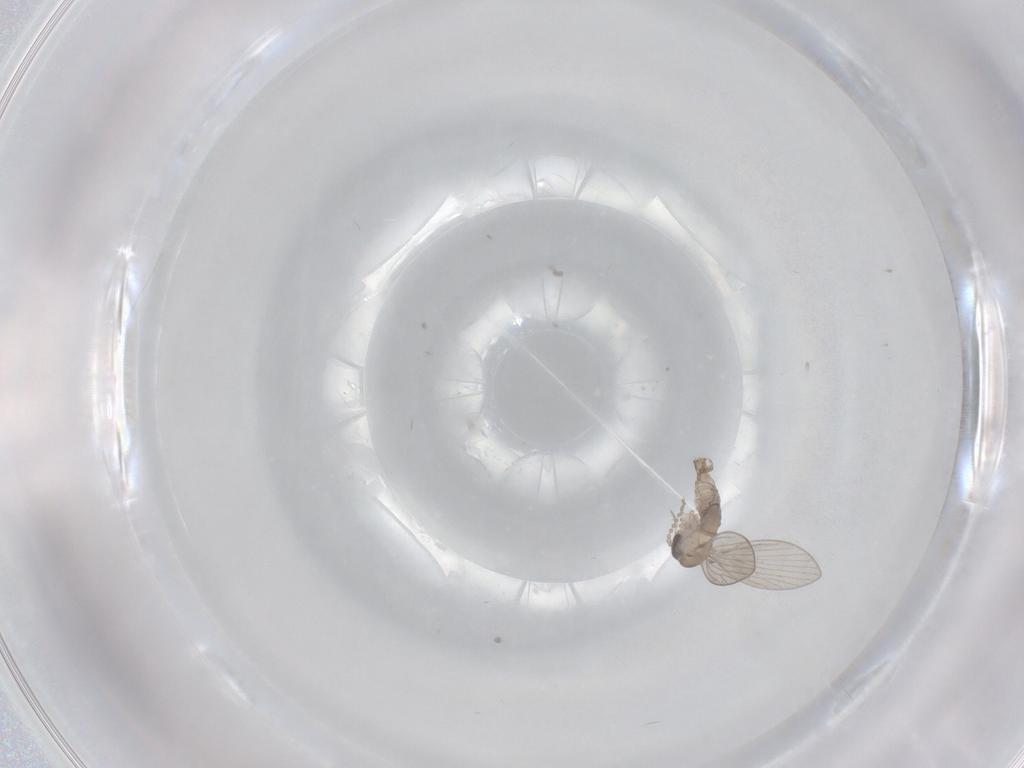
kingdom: Animalia
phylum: Arthropoda
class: Insecta
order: Diptera
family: Psychodidae
